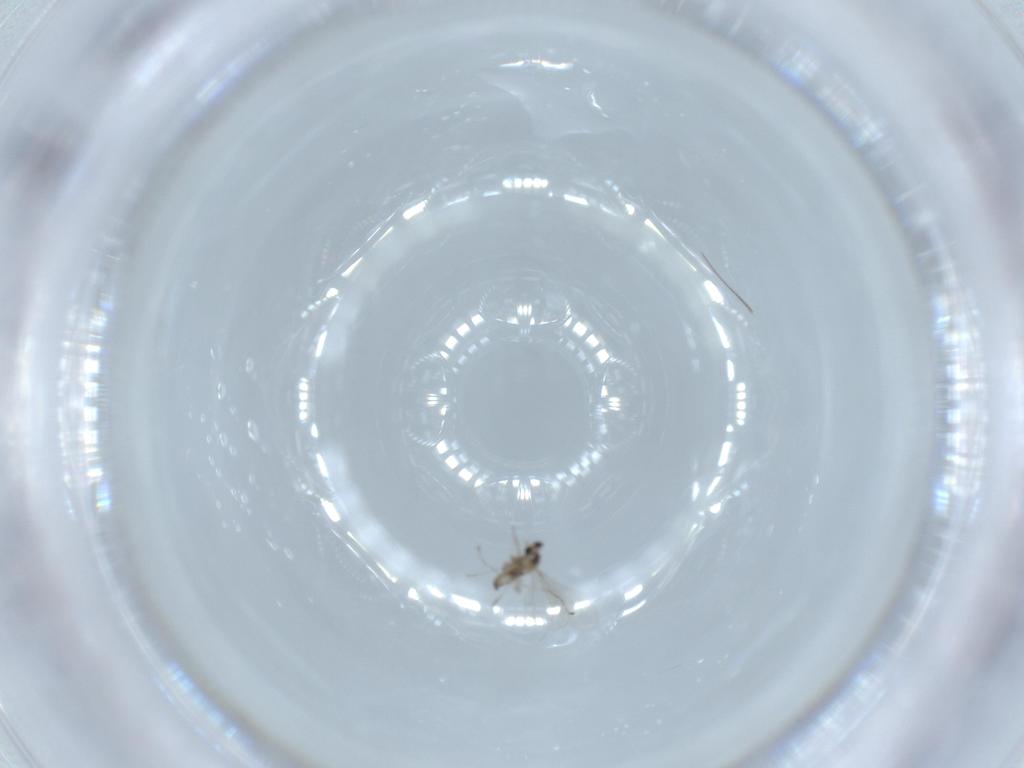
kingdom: Animalia
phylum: Arthropoda
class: Insecta
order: Diptera
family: Cecidomyiidae
